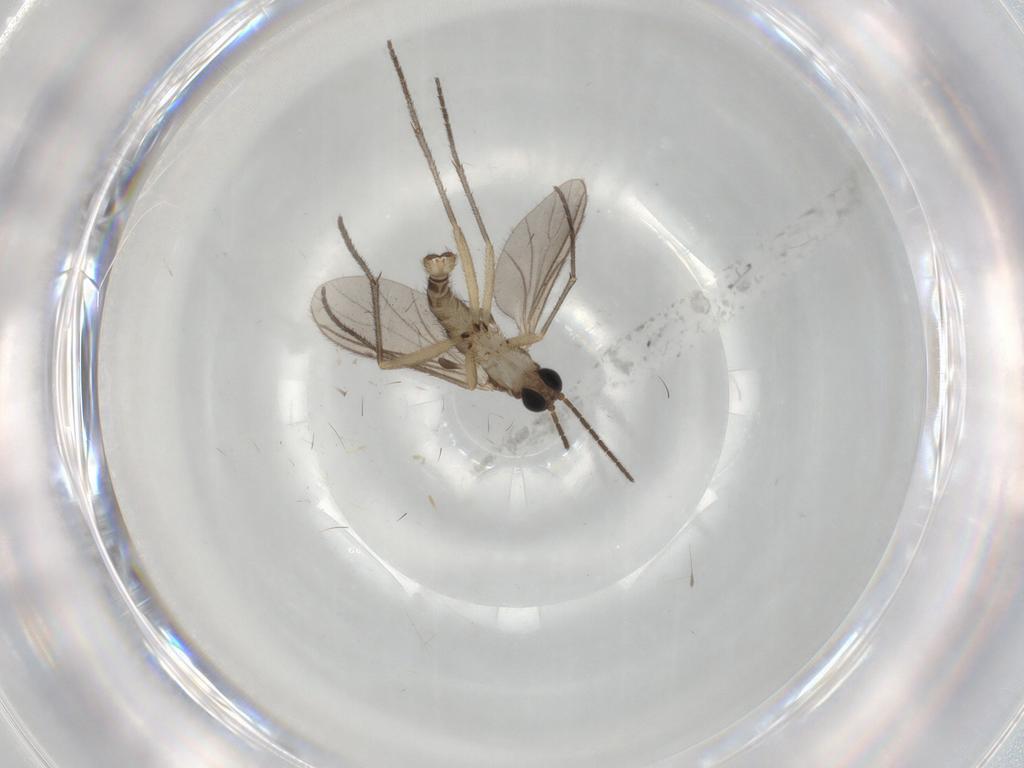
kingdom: Animalia
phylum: Arthropoda
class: Insecta
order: Diptera
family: Sciaridae
